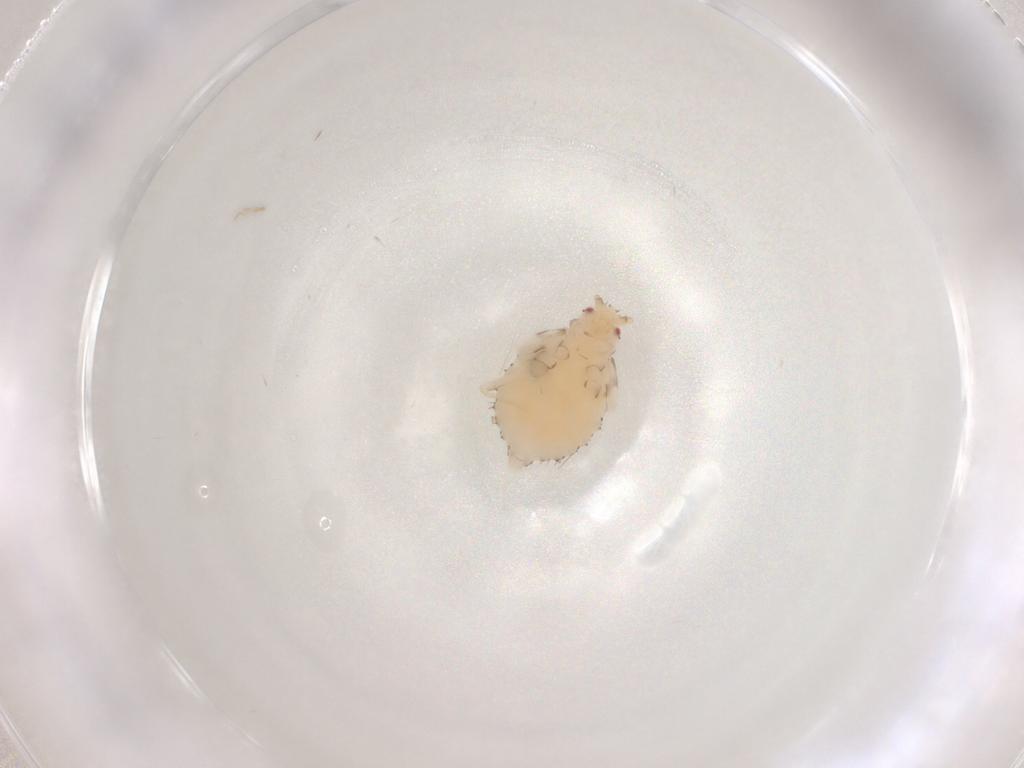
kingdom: Animalia
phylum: Arthropoda
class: Insecta
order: Hemiptera
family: Aphididae
